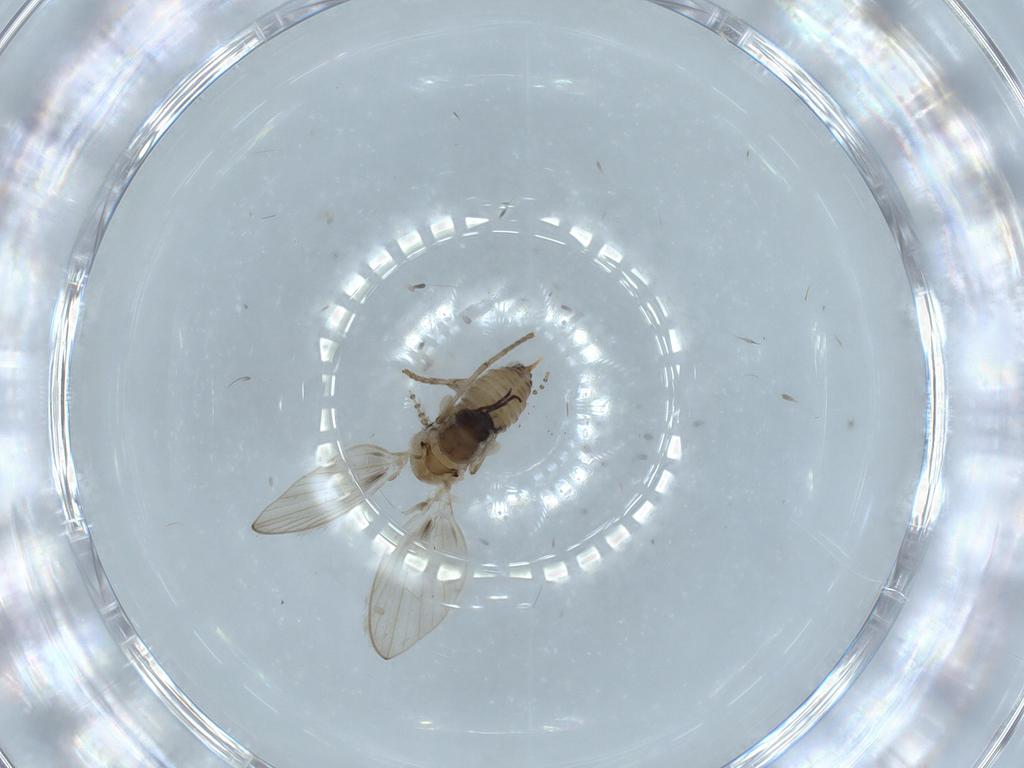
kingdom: Animalia
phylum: Arthropoda
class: Insecta
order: Diptera
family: Psychodidae
